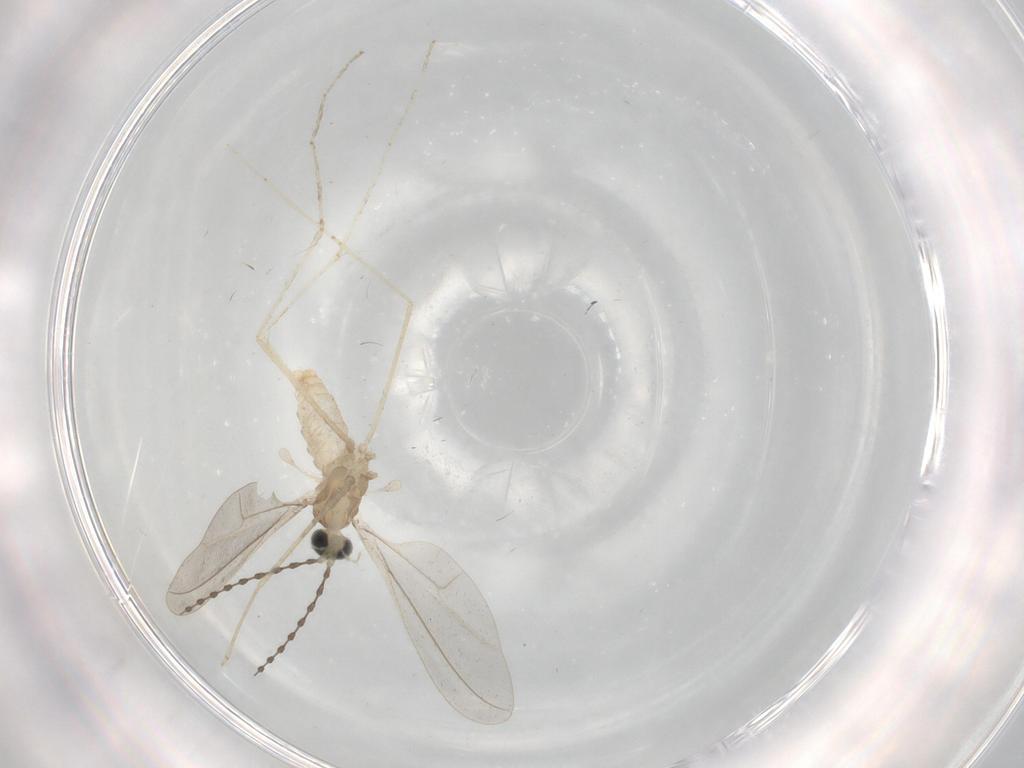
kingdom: Animalia
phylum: Arthropoda
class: Insecta
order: Diptera
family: Cecidomyiidae
